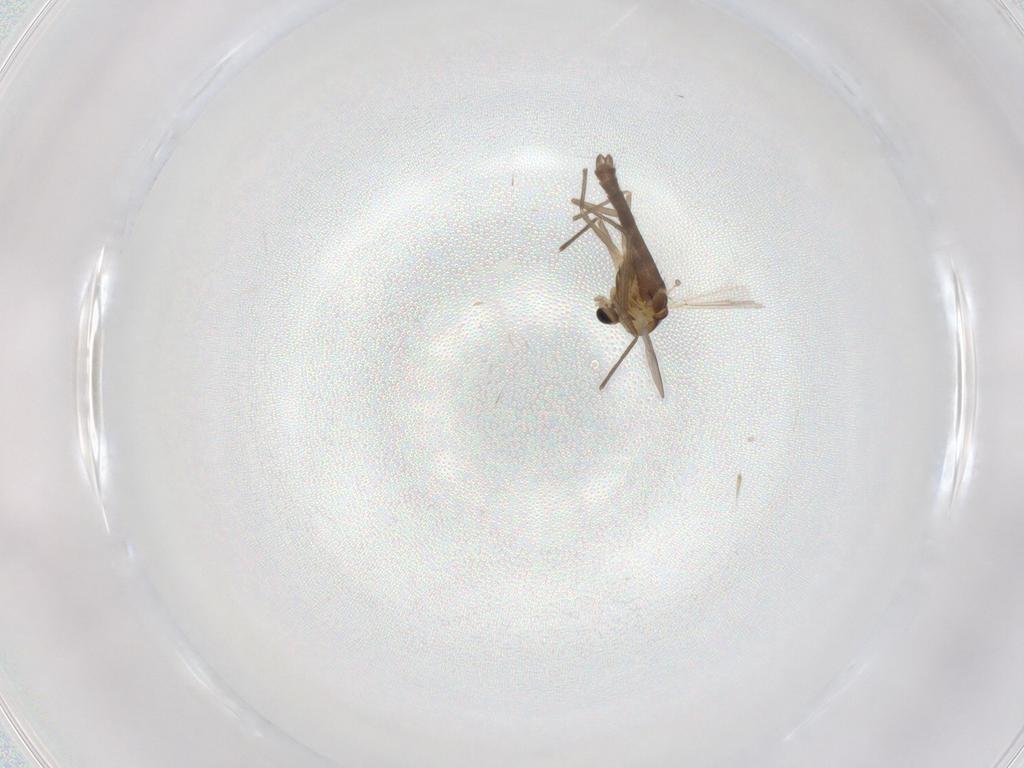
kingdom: Animalia
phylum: Arthropoda
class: Insecta
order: Diptera
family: Chironomidae
